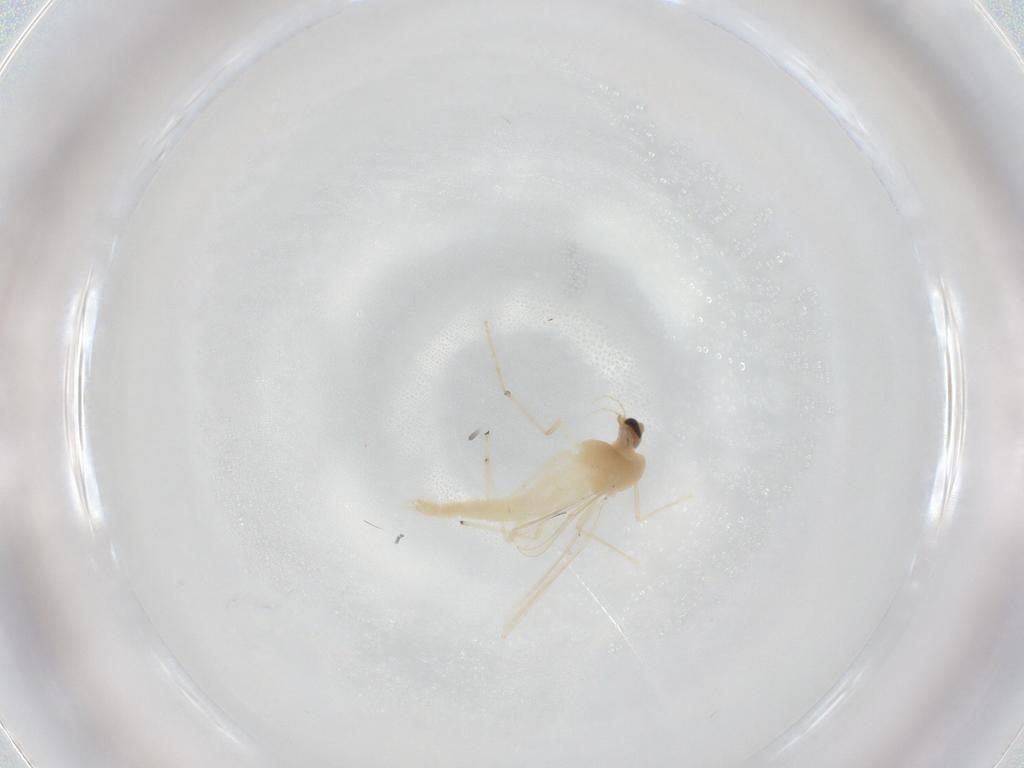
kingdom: Animalia
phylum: Arthropoda
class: Insecta
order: Diptera
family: Chironomidae
